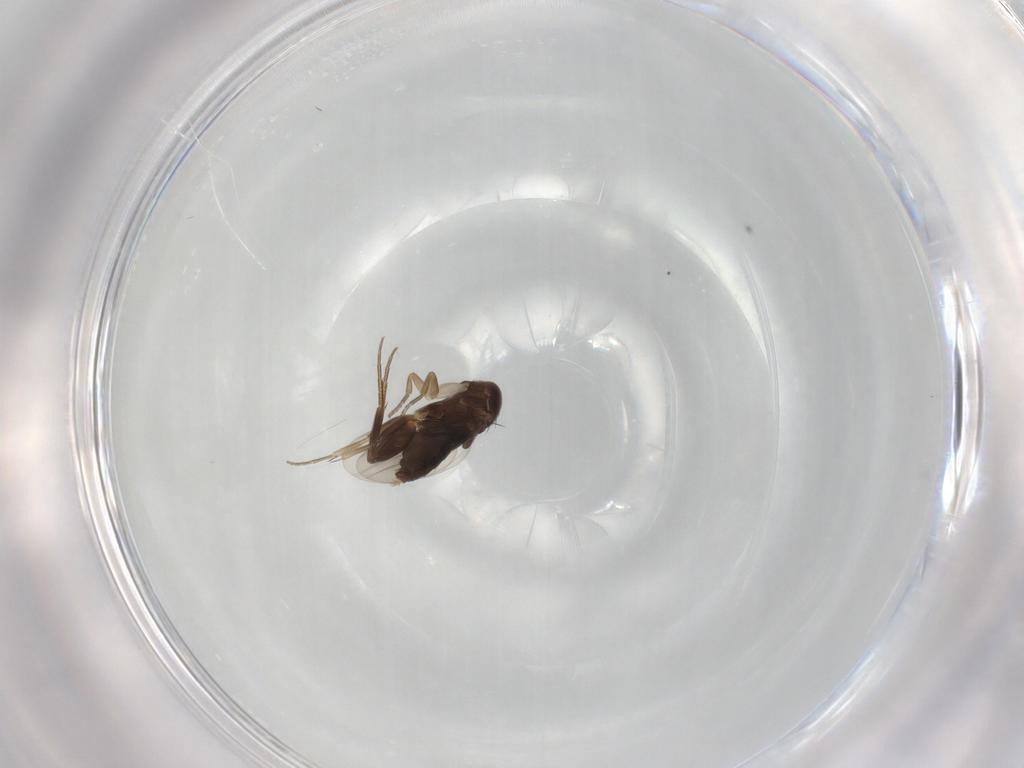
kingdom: Animalia
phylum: Arthropoda
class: Insecta
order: Diptera
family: Phoridae
